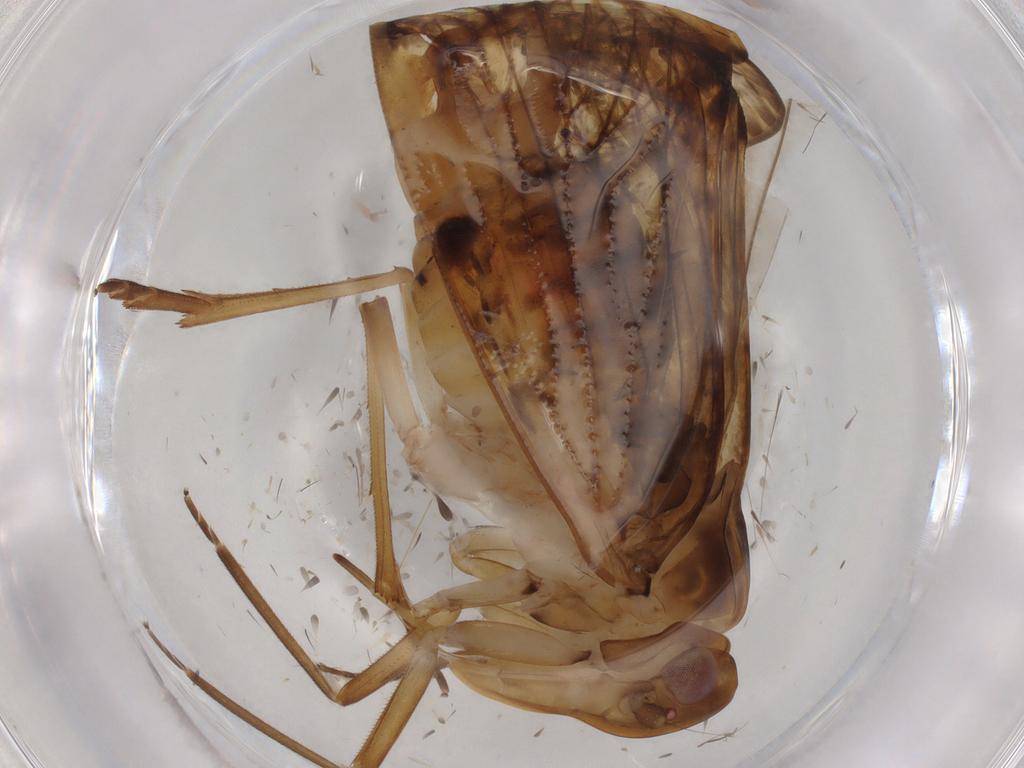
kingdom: Animalia
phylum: Arthropoda
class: Insecta
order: Hemiptera
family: Cixiidae
